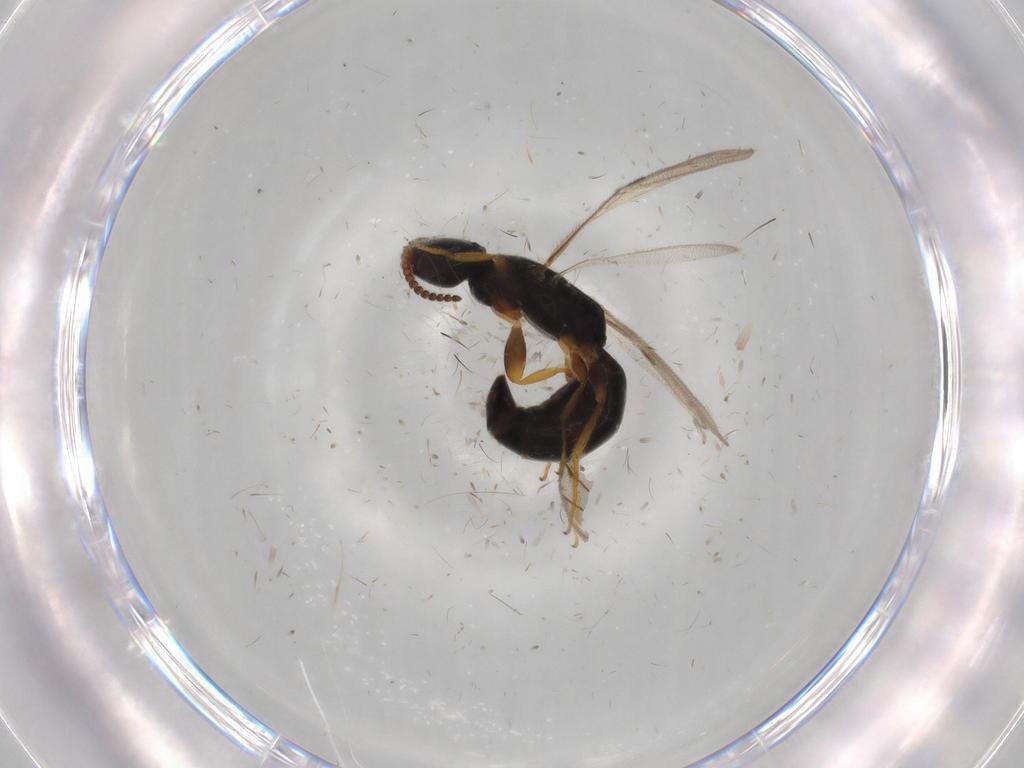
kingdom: Animalia
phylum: Arthropoda
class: Insecta
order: Hymenoptera
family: Bethylidae
